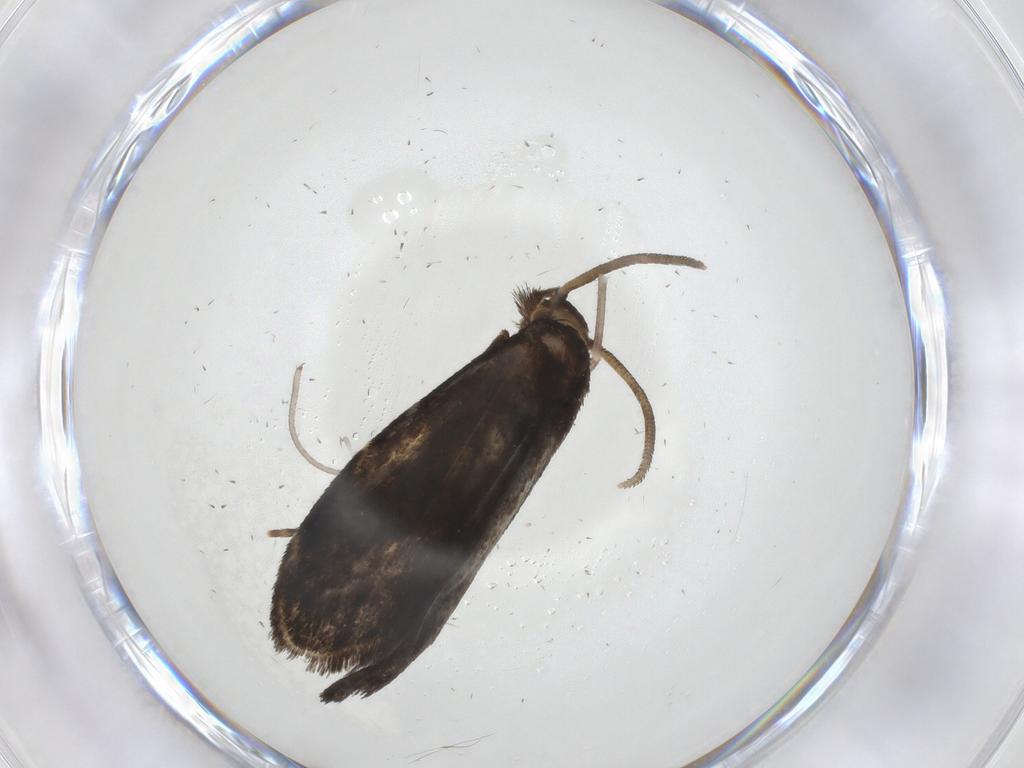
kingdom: Animalia
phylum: Arthropoda
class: Insecta
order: Lepidoptera
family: Dryadaulidae
